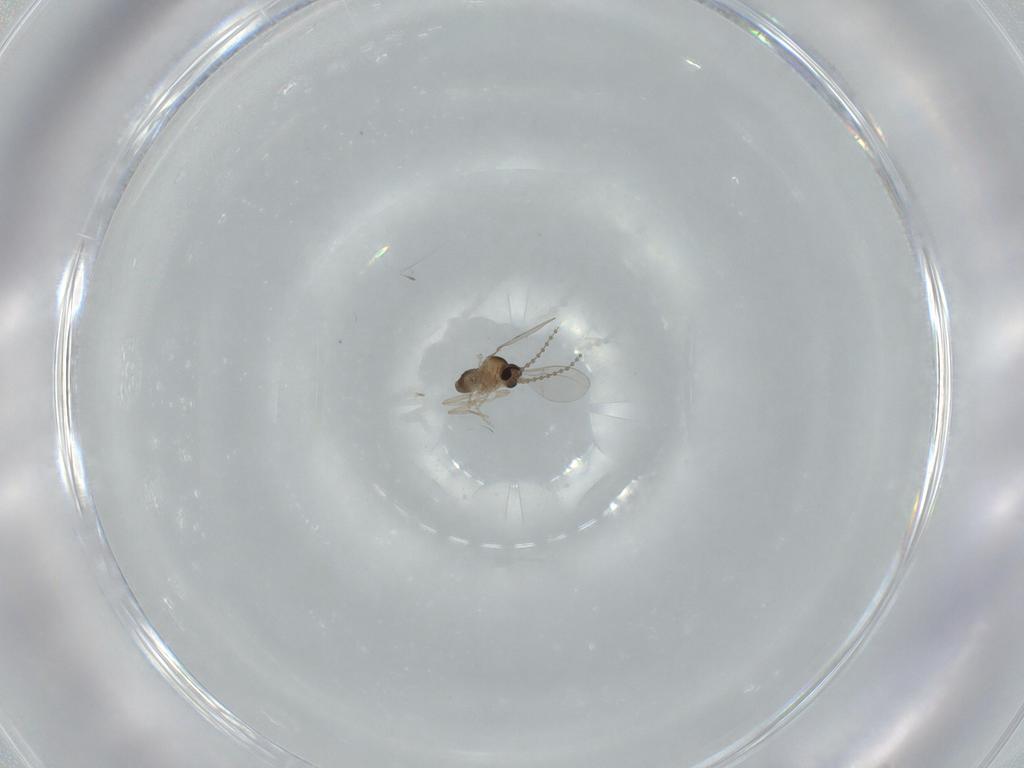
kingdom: Animalia
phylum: Arthropoda
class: Insecta
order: Diptera
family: Cecidomyiidae
